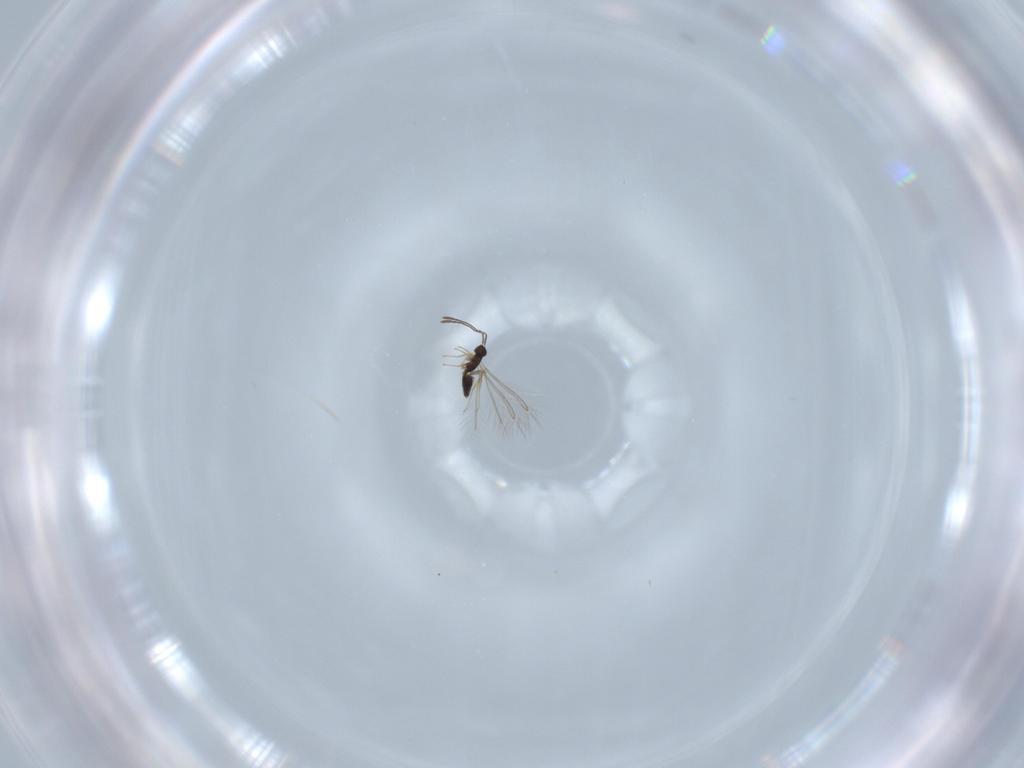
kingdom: Animalia
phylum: Arthropoda
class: Insecta
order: Hymenoptera
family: Mymaridae
